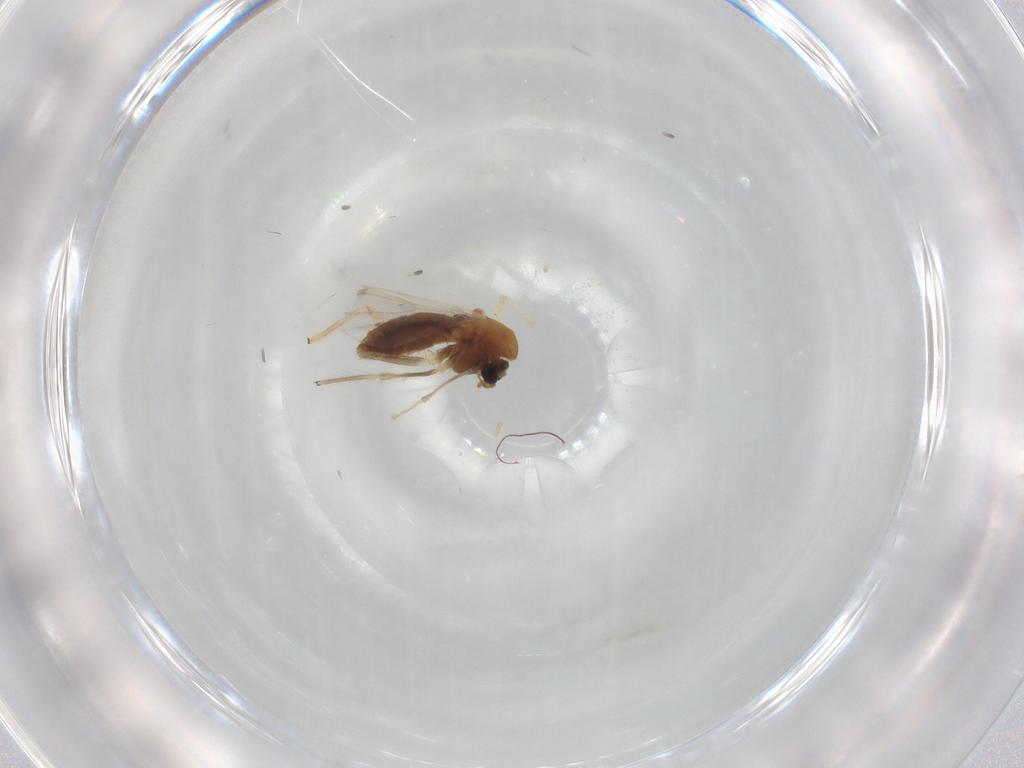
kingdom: Animalia
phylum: Arthropoda
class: Insecta
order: Diptera
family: Chironomidae
